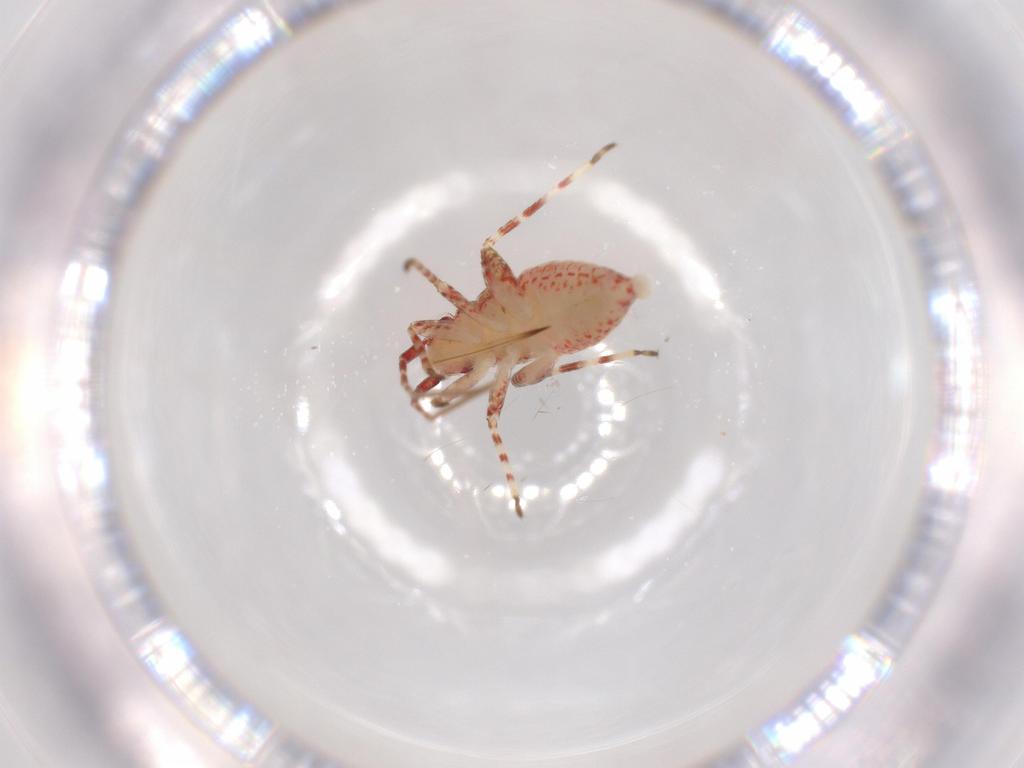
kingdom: Animalia
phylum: Arthropoda
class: Insecta
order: Hemiptera
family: Miridae
